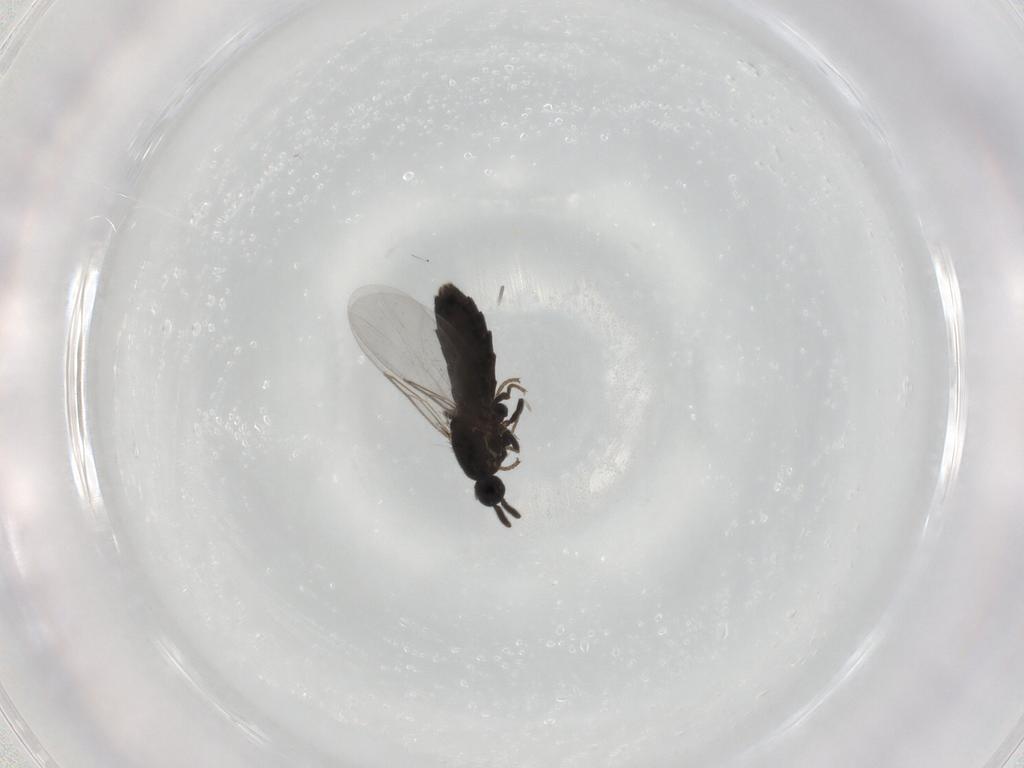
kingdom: Animalia
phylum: Arthropoda
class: Insecta
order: Diptera
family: Scatopsidae
